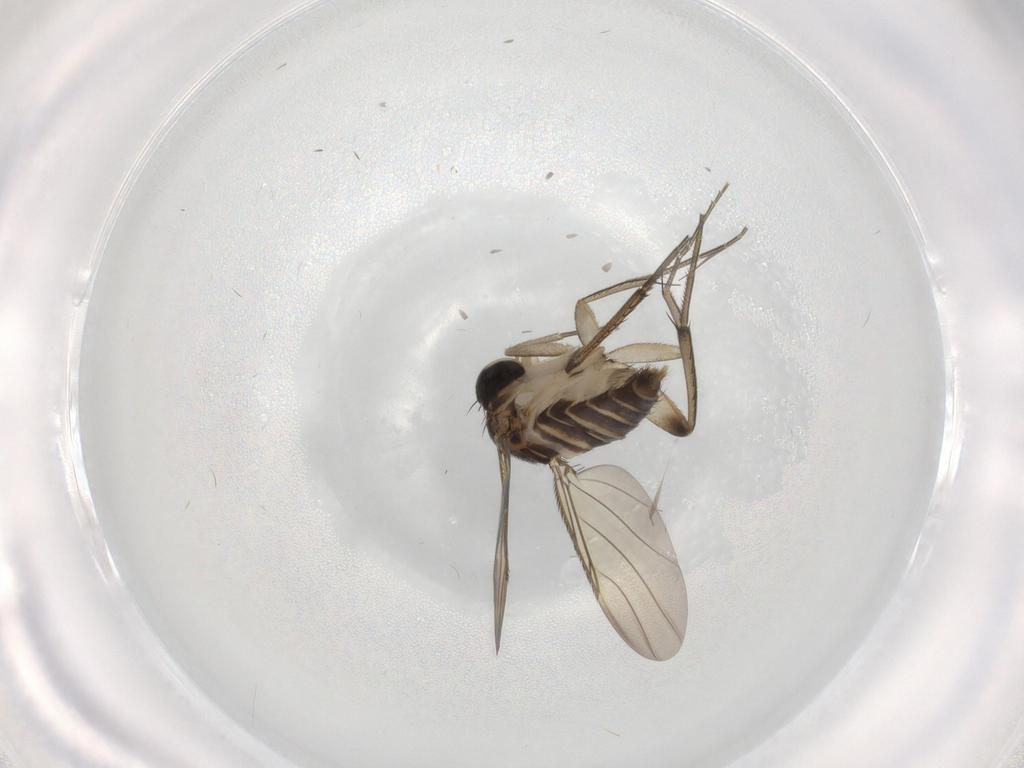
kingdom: Animalia
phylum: Arthropoda
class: Insecta
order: Diptera
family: Phoridae
